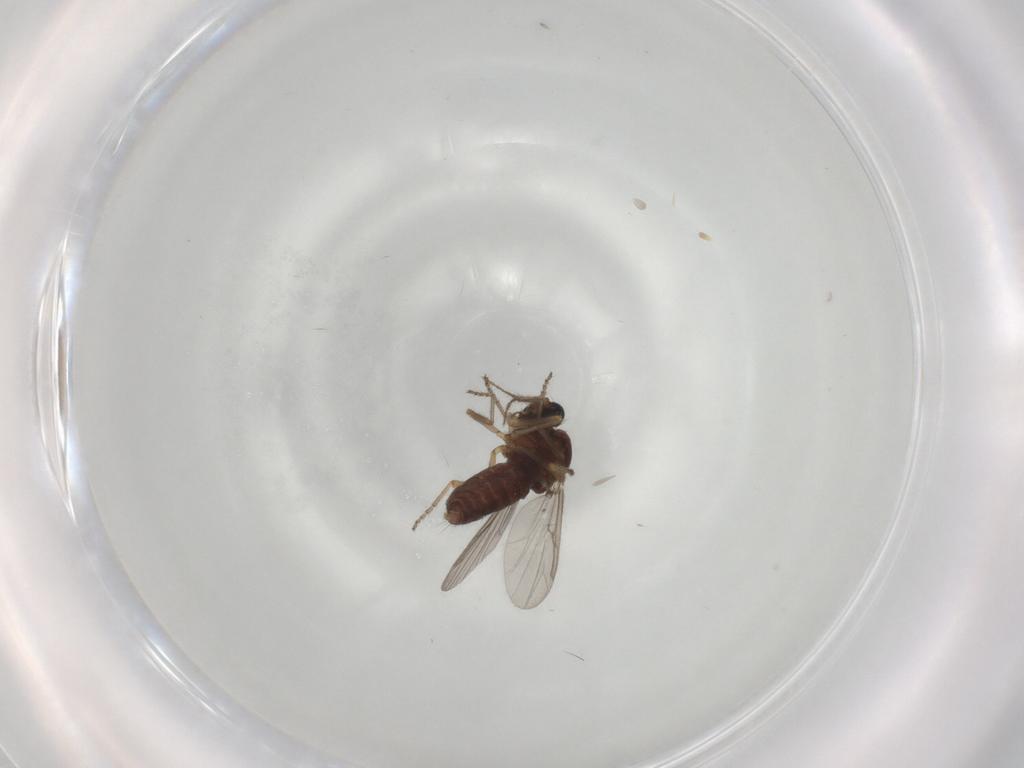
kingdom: Animalia
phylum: Arthropoda
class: Insecta
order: Diptera
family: Ceratopogonidae
